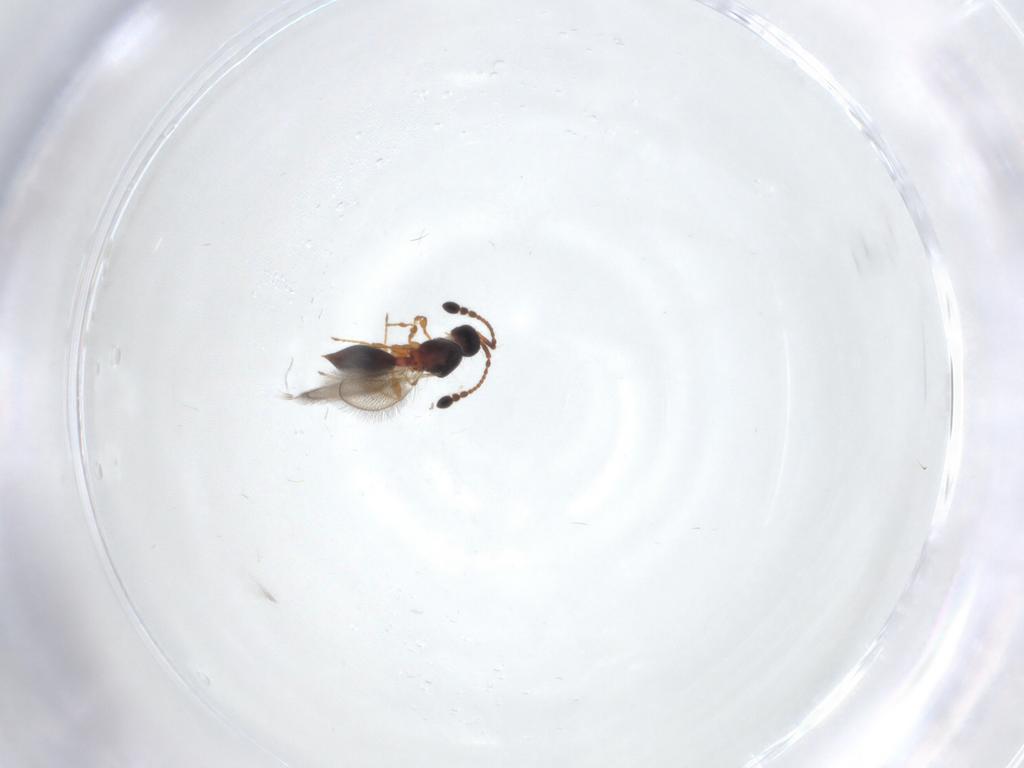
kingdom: Animalia
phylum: Arthropoda
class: Insecta
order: Hymenoptera
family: Diapriidae
